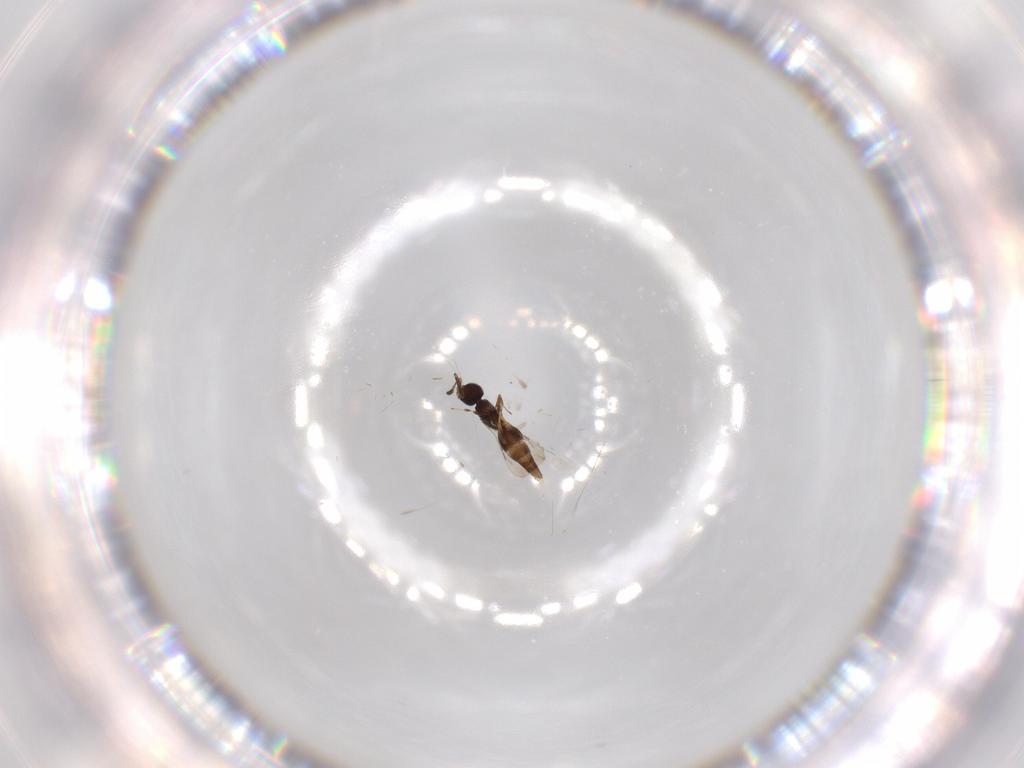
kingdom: Animalia
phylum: Arthropoda
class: Insecta
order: Hymenoptera
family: Ceraphronidae
